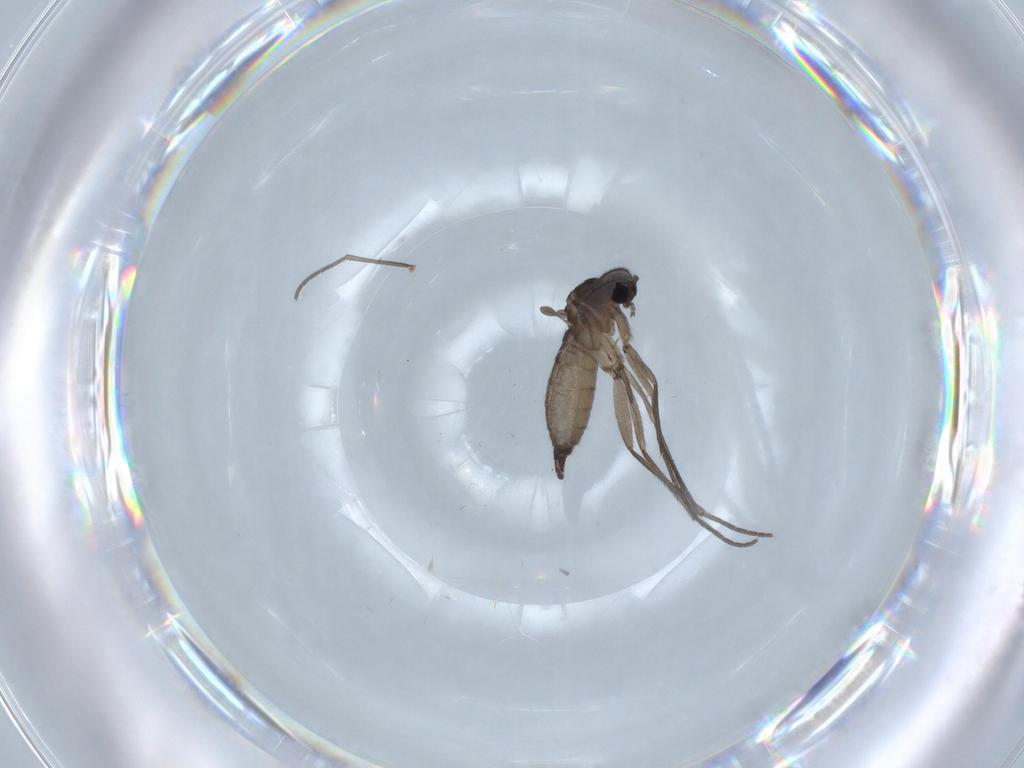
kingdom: Animalia
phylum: Arthropoda
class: Insecta
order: Diptera
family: Sciaridae
